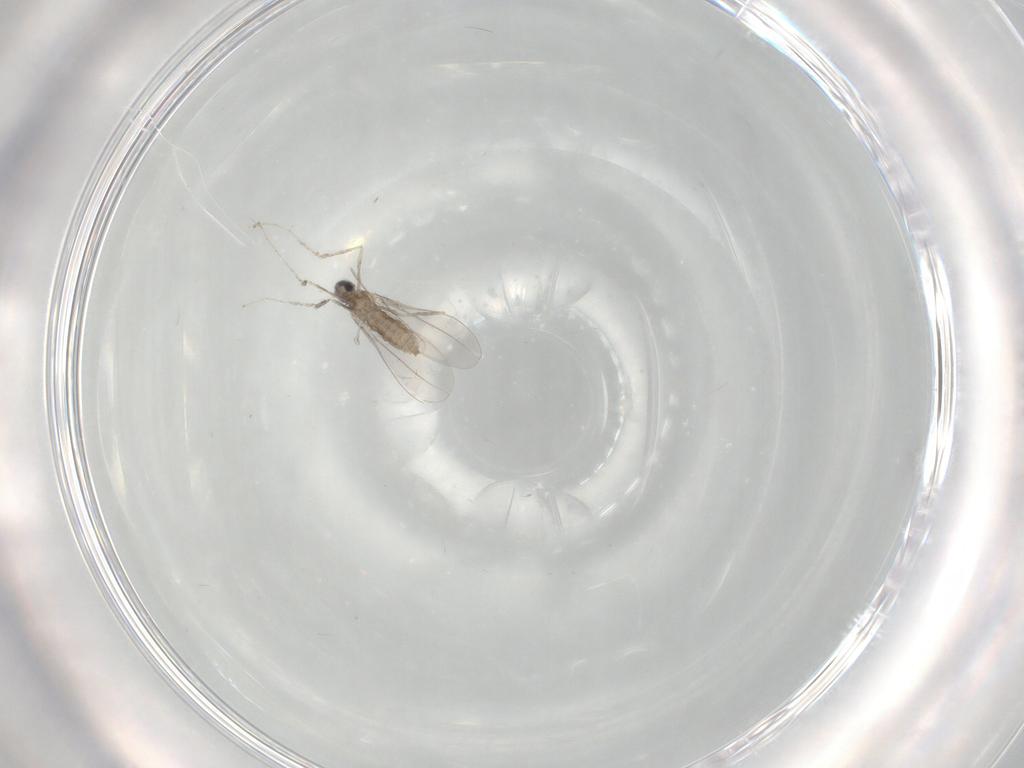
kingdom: Animalia
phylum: Arthropoda
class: Insecta
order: Diptera
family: Cecidomyiidae
